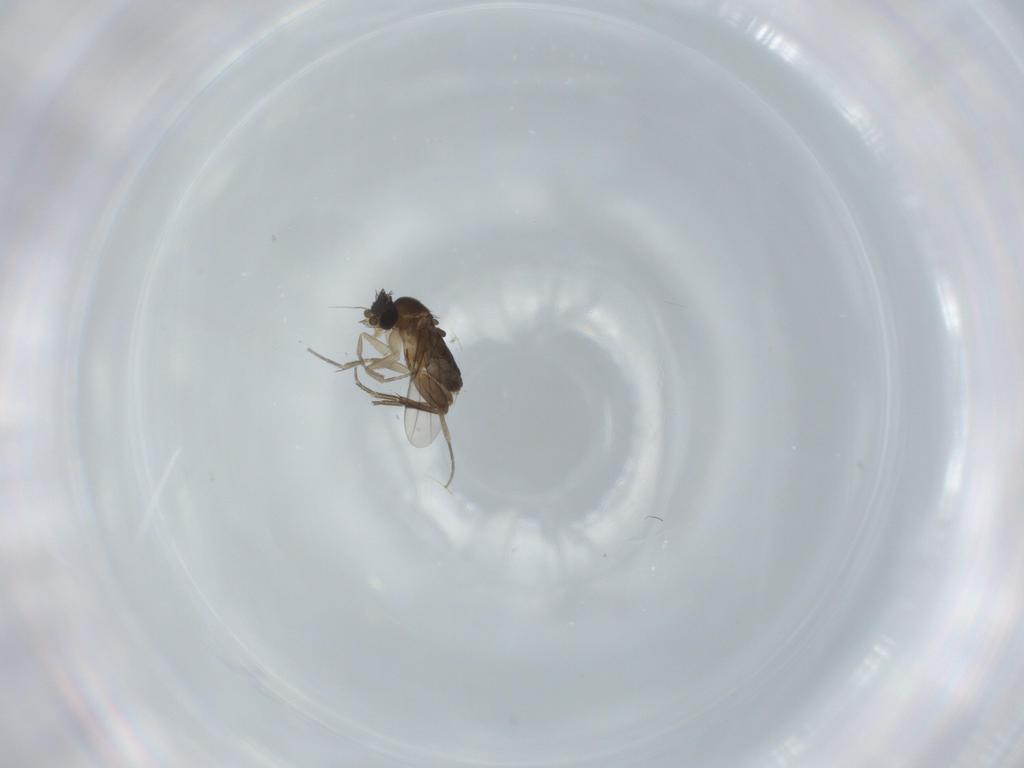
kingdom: Animalia
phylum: Arthropoda
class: Insecta
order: Diptera
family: Phoridae
